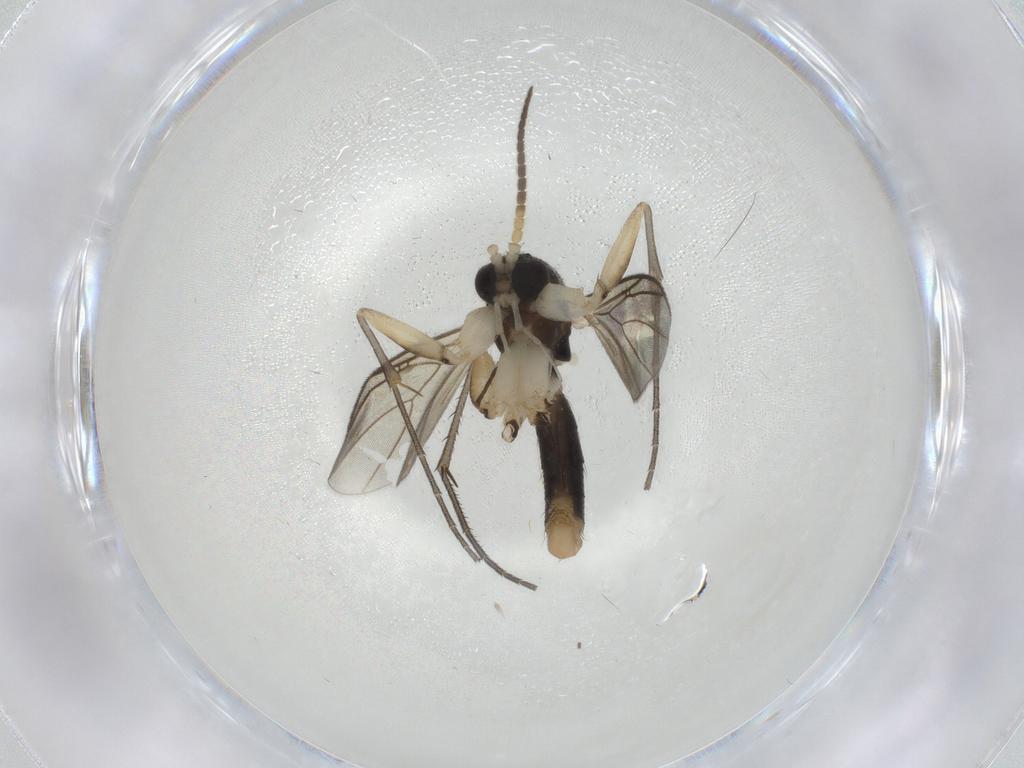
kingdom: Animalia
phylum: Arthropoda
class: Insecta
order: Diptera
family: Mycetophilidae
